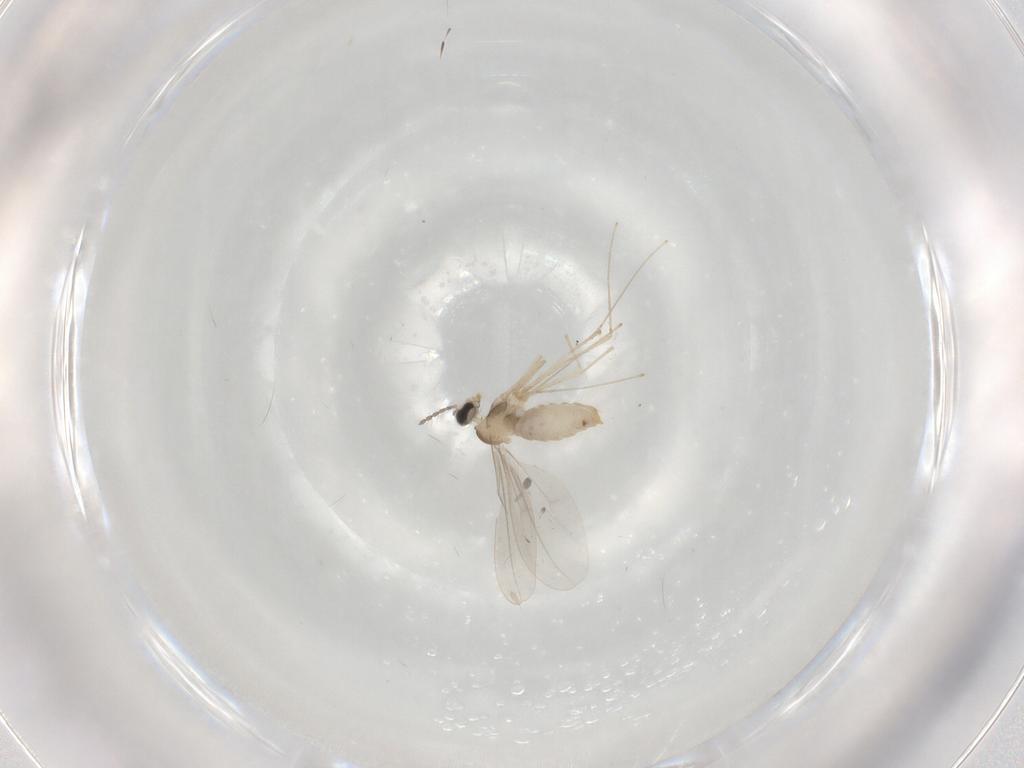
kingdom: Animalia
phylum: Arthropoda
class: Insecta
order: Diptera
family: Cecidomyiidae
